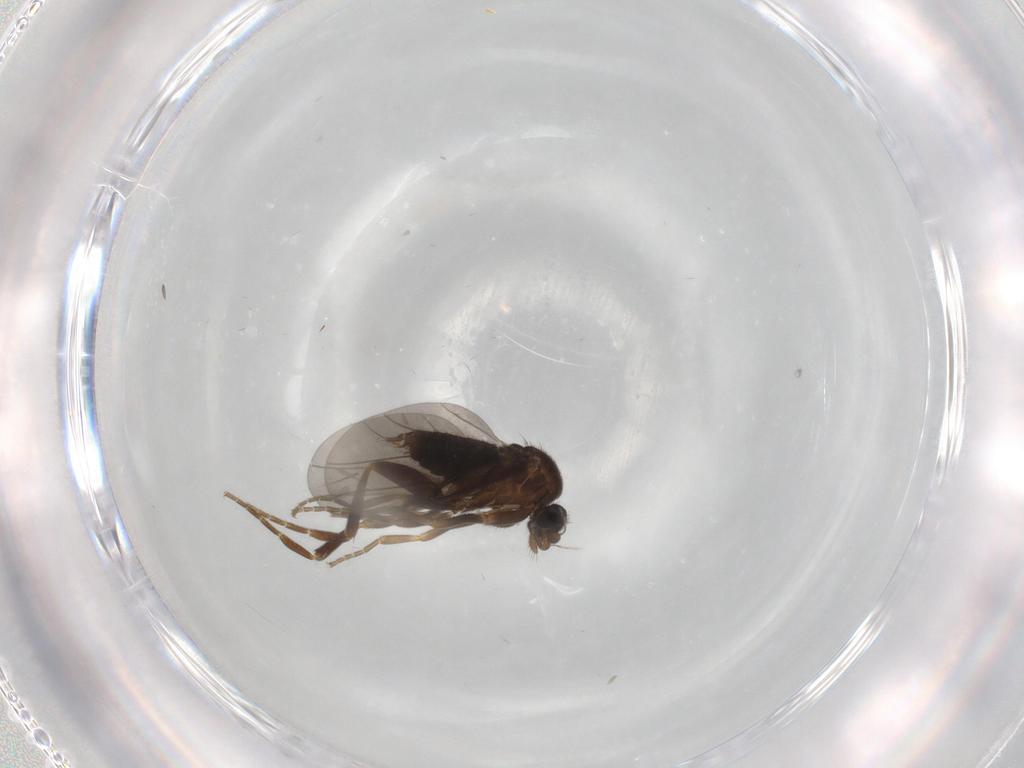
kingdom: Animalia
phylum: Arthropoda
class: Insecta
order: Diptera
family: Phoridae
